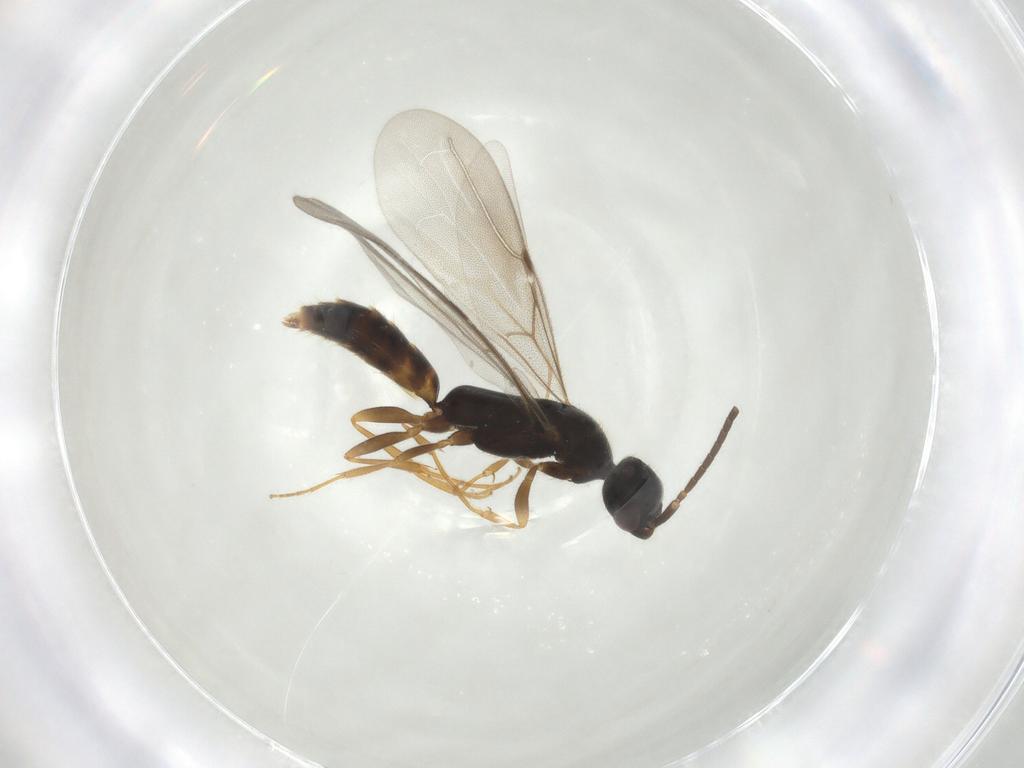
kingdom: Animalia
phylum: Arthropoda
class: Insecta
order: Hymenoptera
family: Bethylidae
